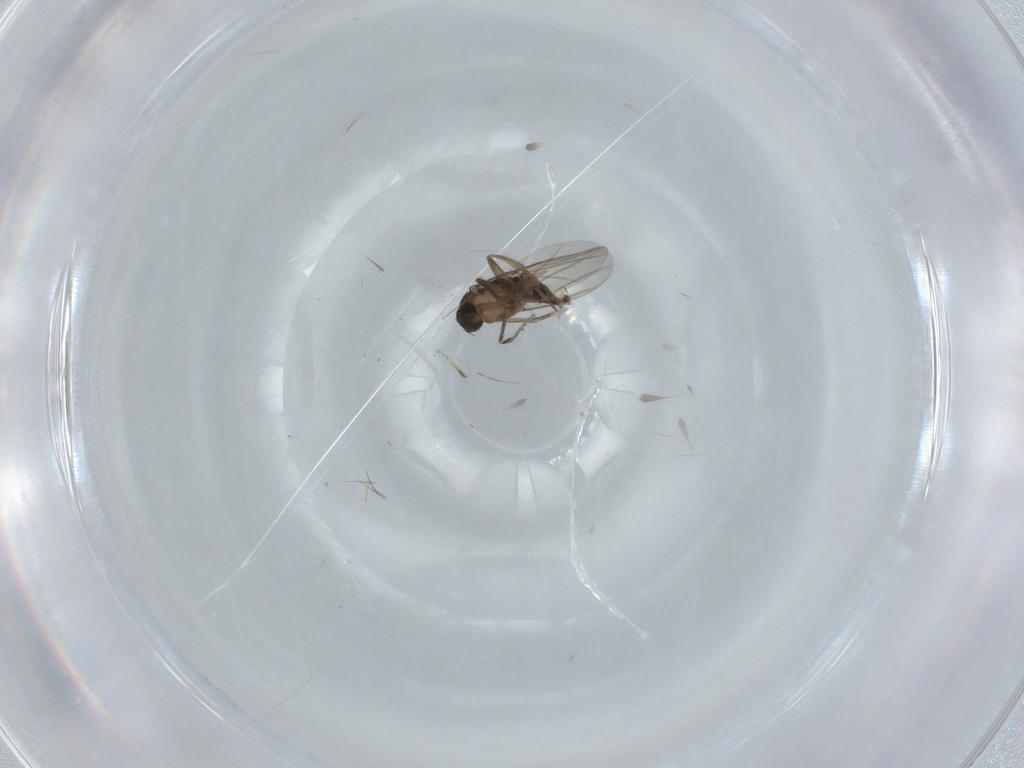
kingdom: Animalia
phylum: Arthropoda
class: Insecta
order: Diptera
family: Phoridae
